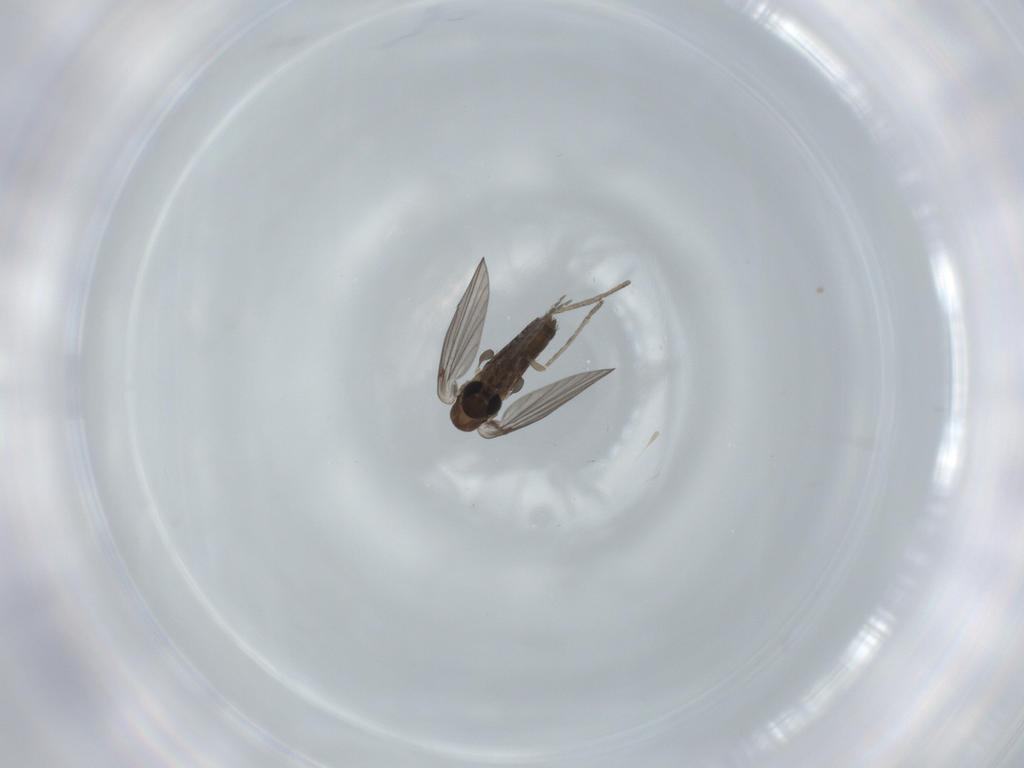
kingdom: Animalia
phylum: Arthropoda
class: Insecta
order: Diptera
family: Psychodidae
